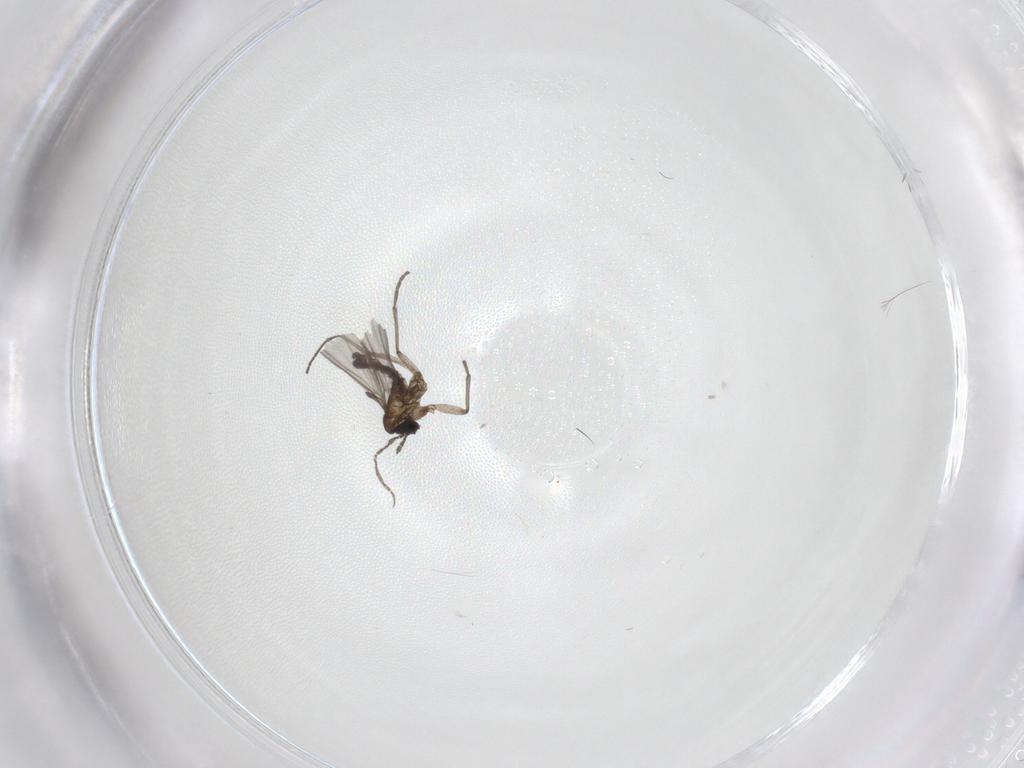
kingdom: Animalia
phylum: Arthropoda
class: Insecta
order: Diptera
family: Sciaridae
